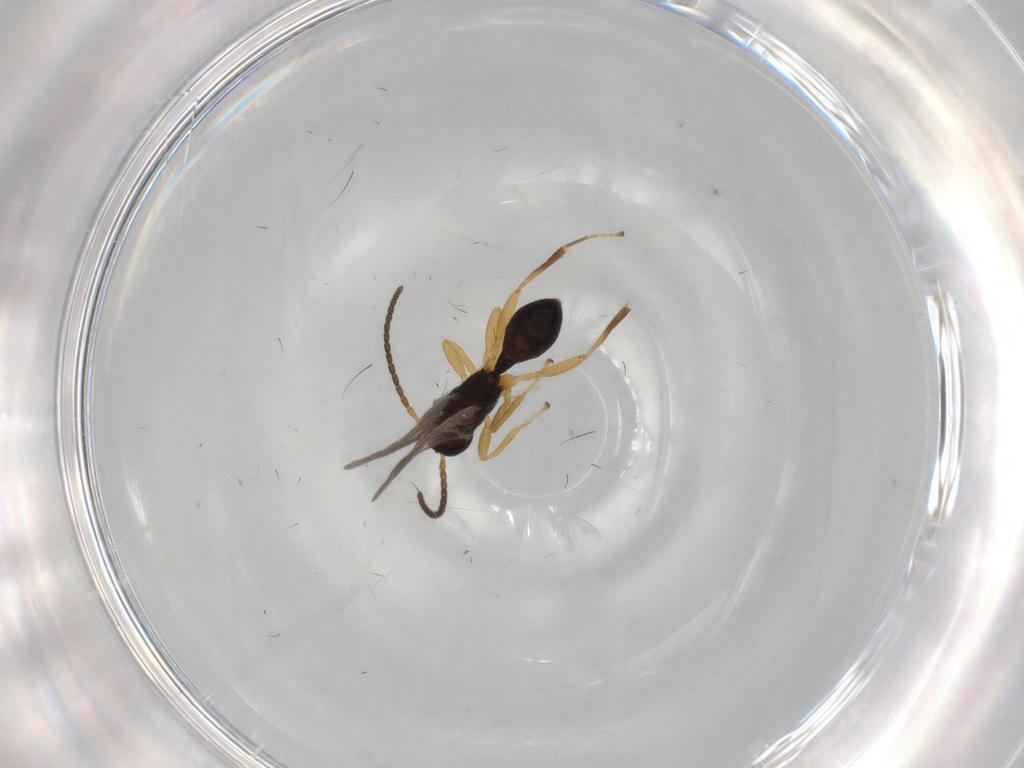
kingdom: Animalia
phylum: Arthropoda
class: Insecta
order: Hymenoptera
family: Braconidae
